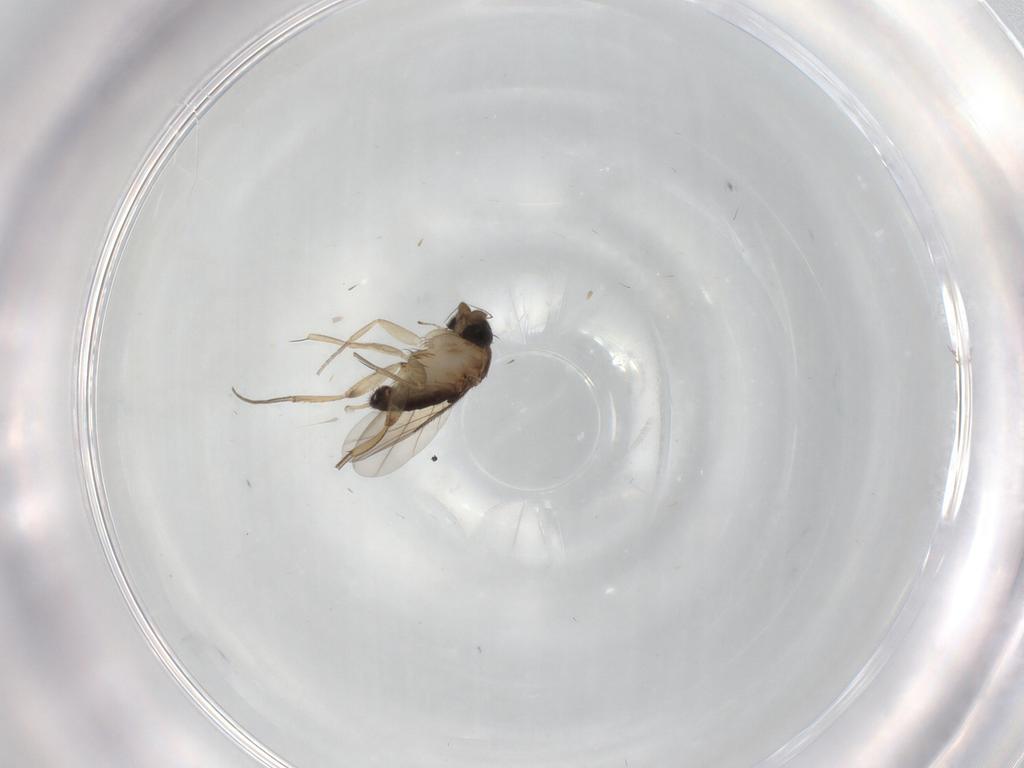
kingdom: Animalia
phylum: Arthropoda
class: Insecta
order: Diptera
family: Phoridae
